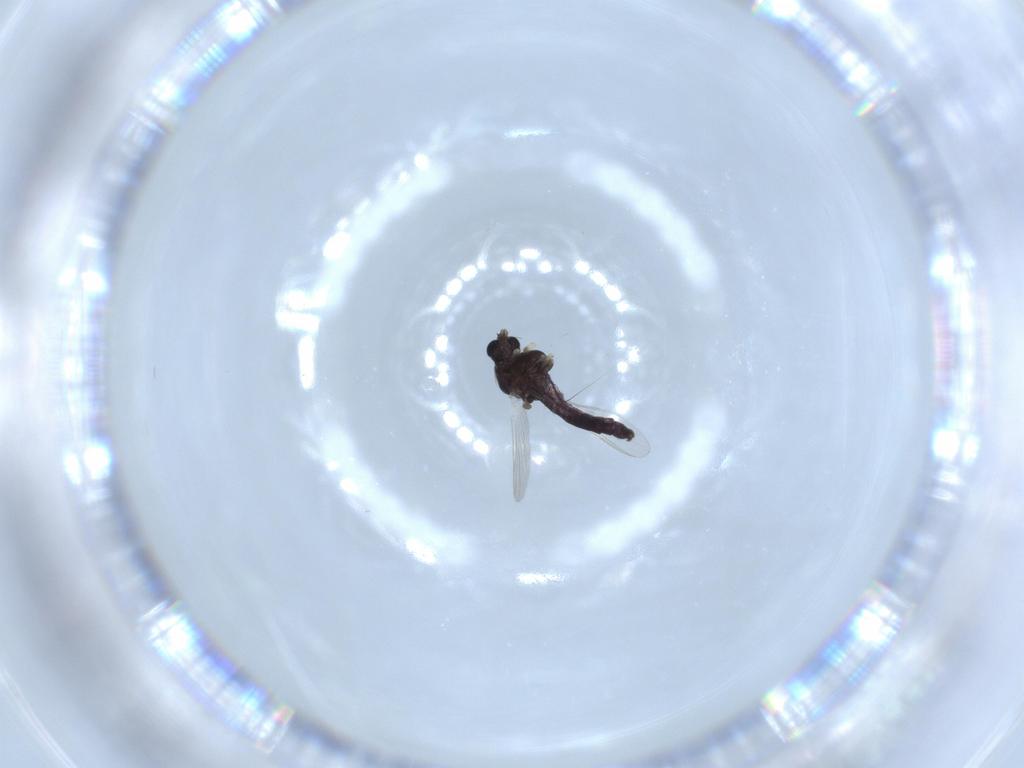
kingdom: Animalia
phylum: Arthropoda
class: Insecta
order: Diptera
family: Chironomidae
